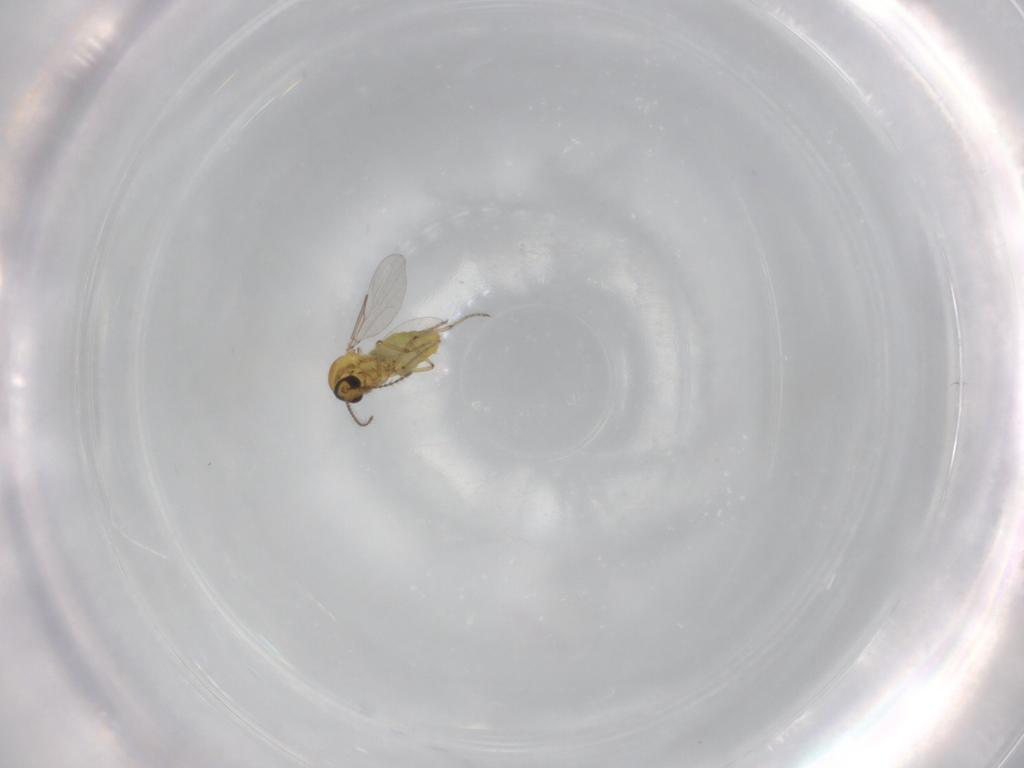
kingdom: Animalia
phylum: Arthropoda
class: Insecta
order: Diptera
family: Ceratopogonidae
